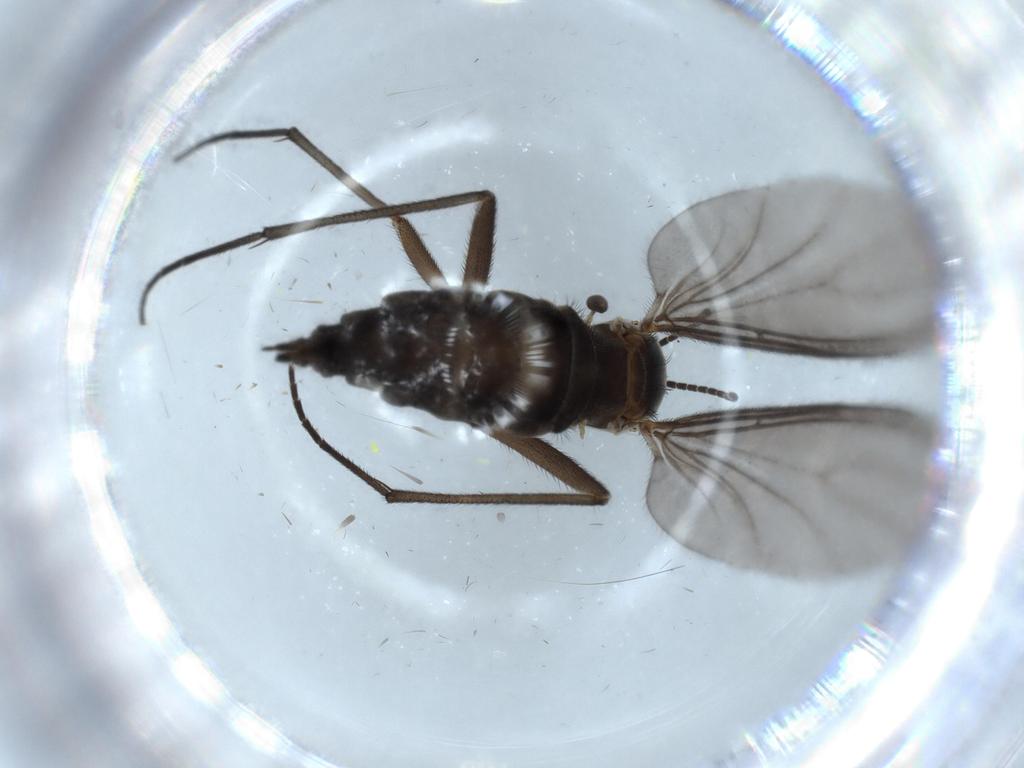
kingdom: Animalia
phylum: Arthropoda
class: Insecta
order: Diptera
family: Sciaridae
